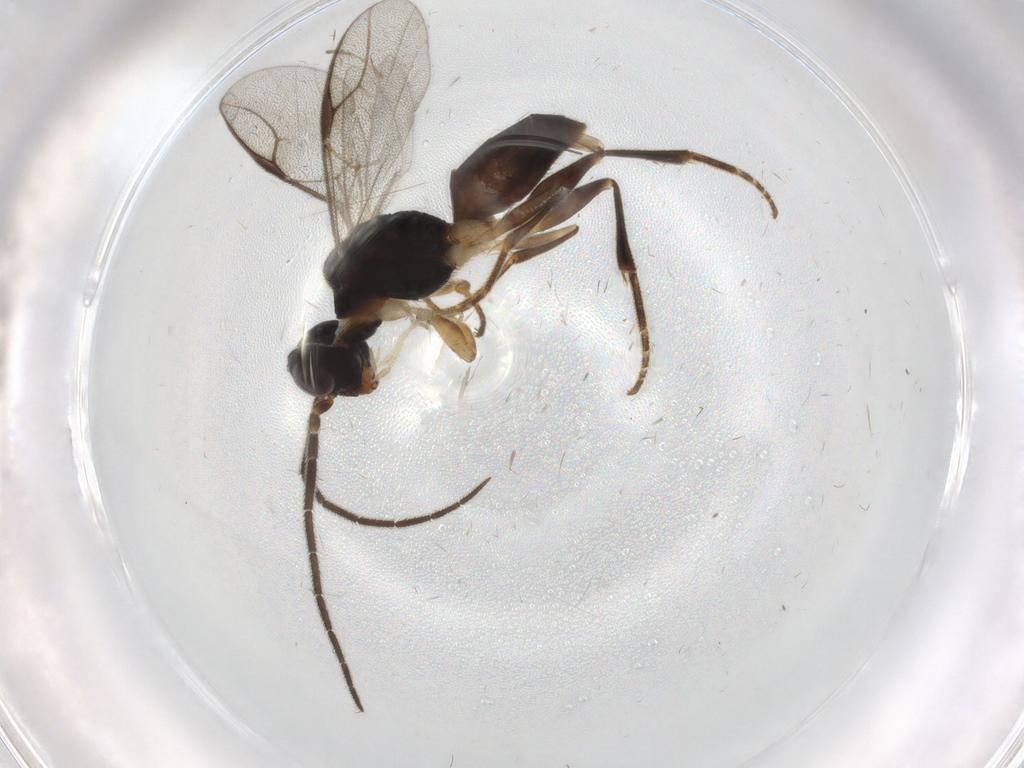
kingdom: Animalia
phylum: Arthropoda
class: Insecta
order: Hymenoptera
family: Dryinidae
